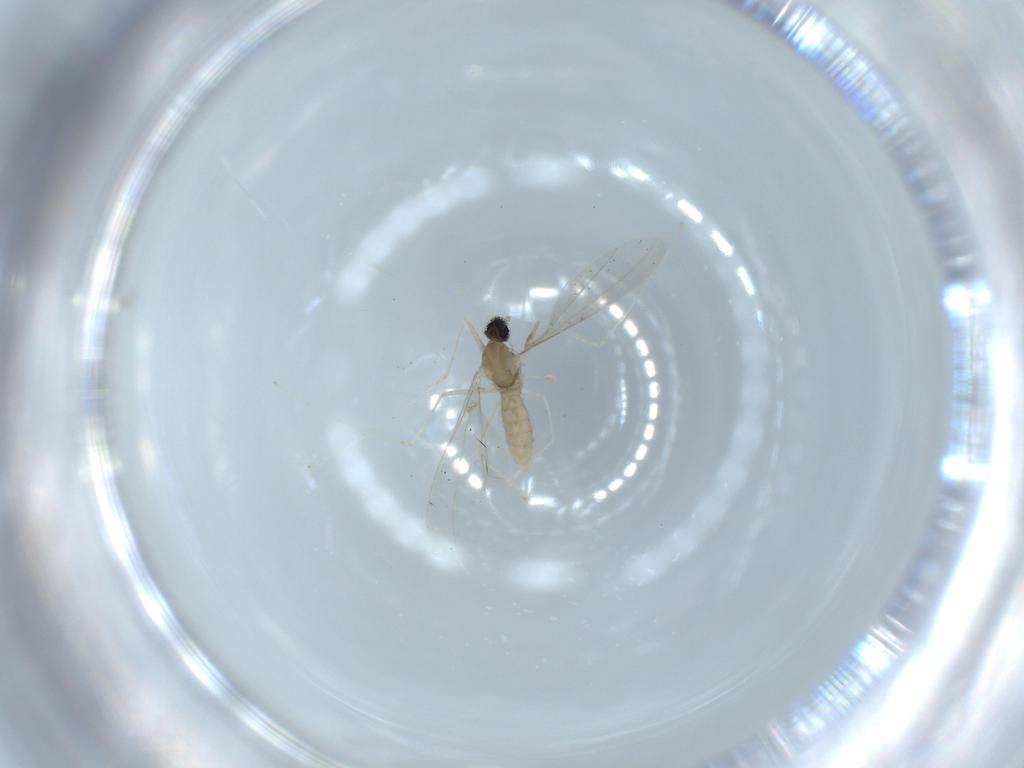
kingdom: Animalia
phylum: Arthropoda
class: Insecta
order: Diptera
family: Cecidomyiidae
